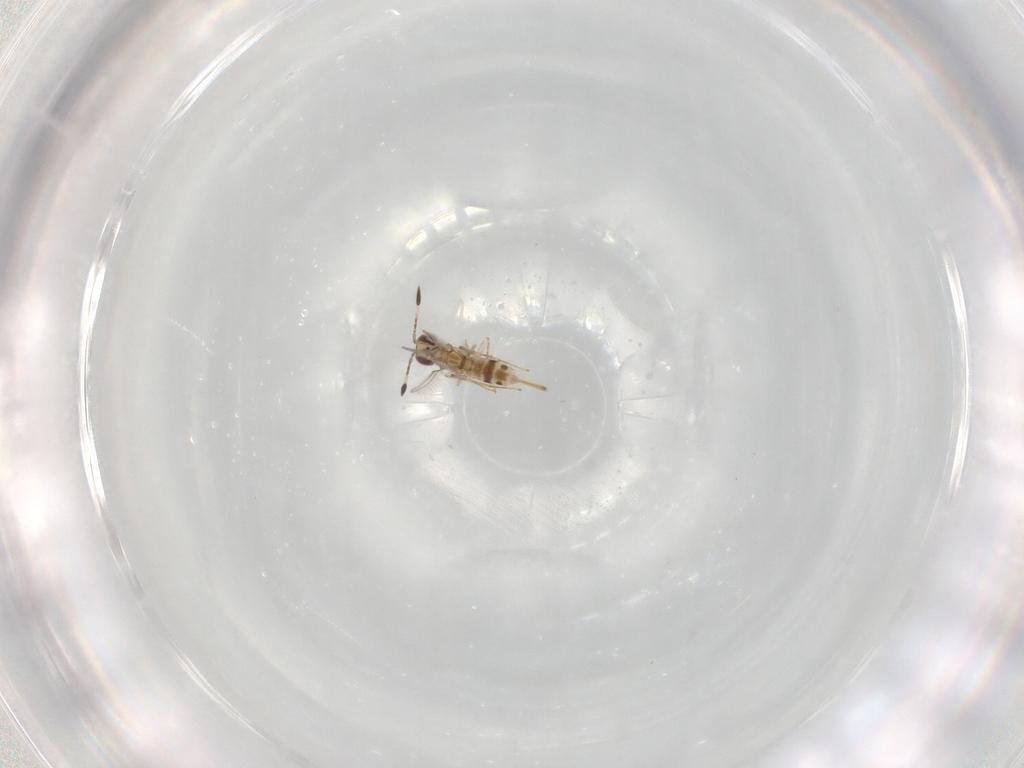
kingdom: Animalia
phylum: Arthropoda
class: Insecta
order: Hymenoptera
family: Mymaridae
